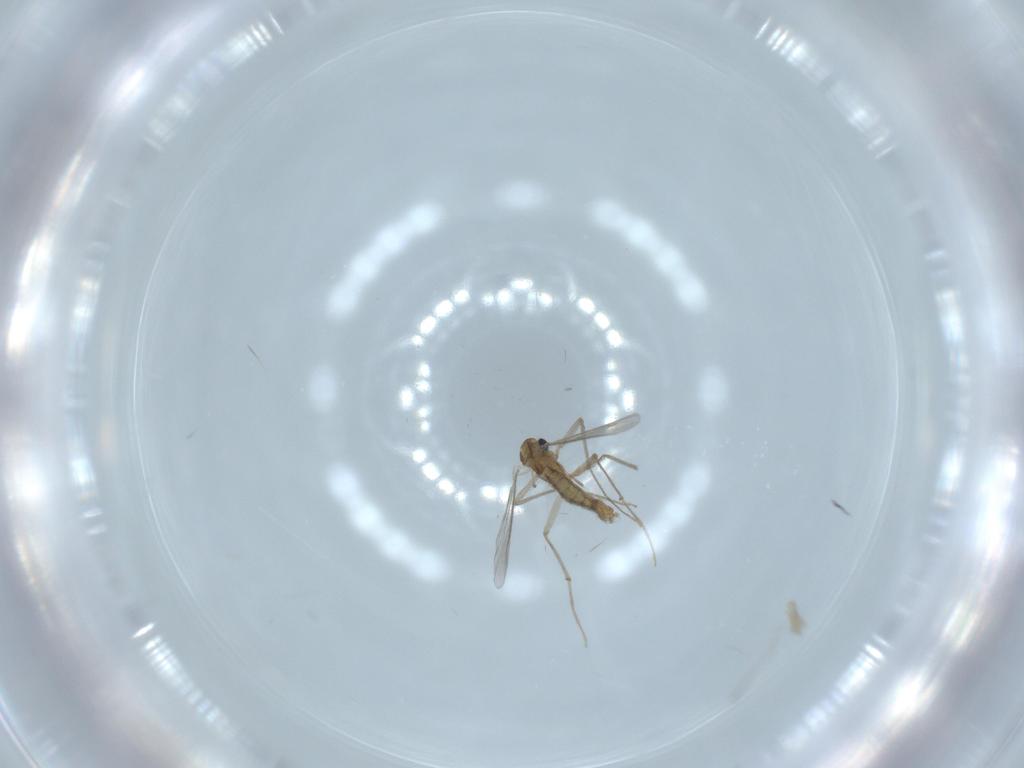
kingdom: Animalia
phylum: Arthropoda
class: Insecta
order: Diptera
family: Chironomidae
